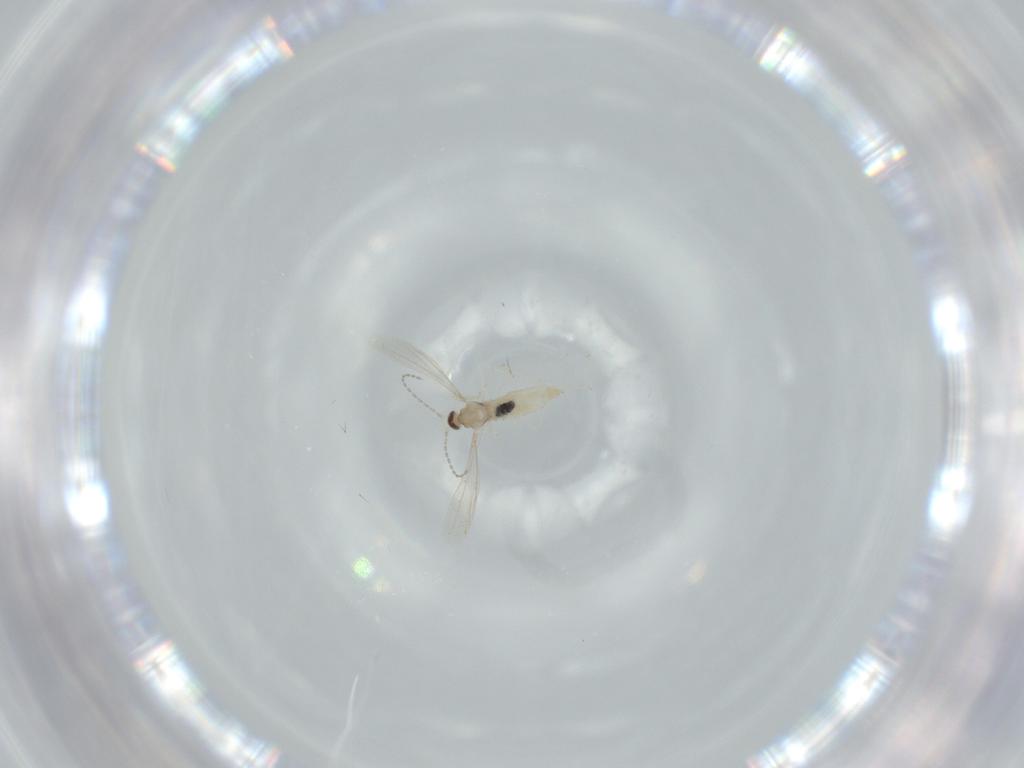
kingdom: Animalia
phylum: Arthropoda
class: Insecta
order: Diptera
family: Cecidomyiidae
